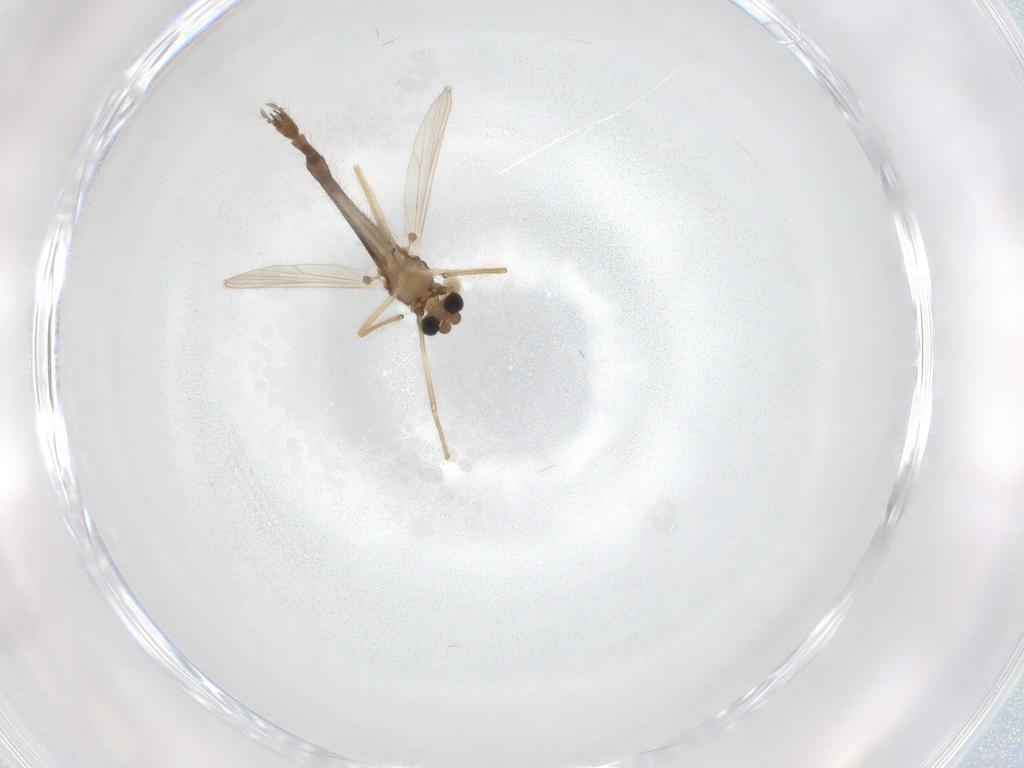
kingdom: Animalia
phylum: Arthropoda
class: Insecta
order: Diptera
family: Chironomidae
